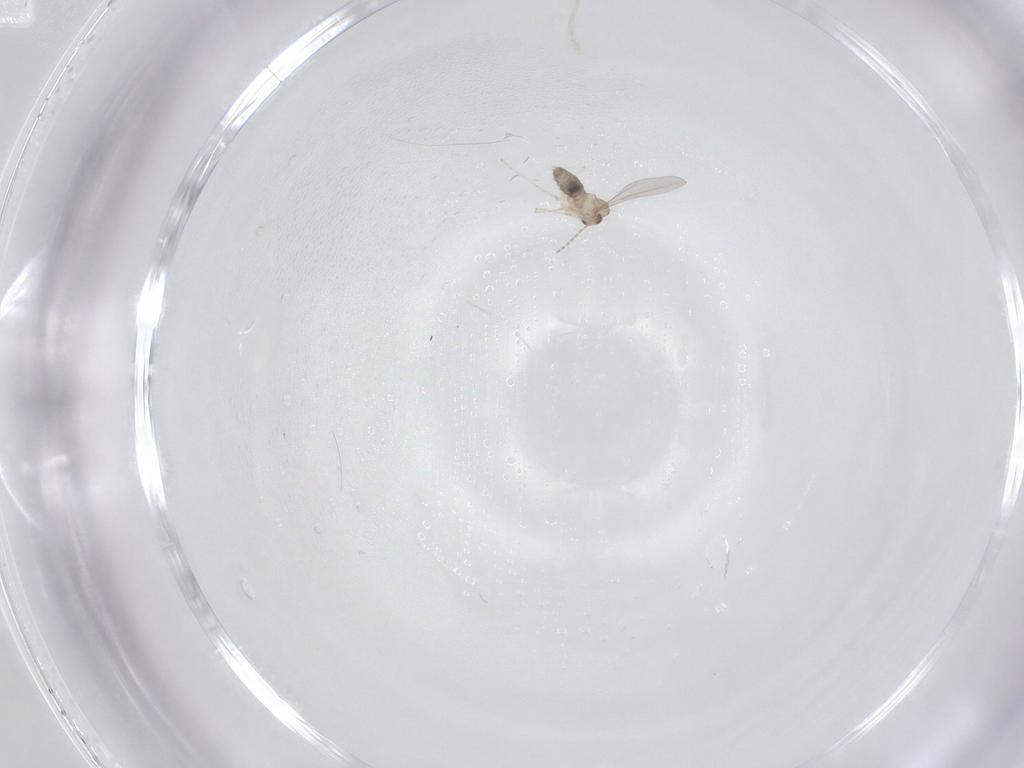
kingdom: Animalia
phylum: Arthropoda
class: Insecta
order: Diptera
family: Cecidomyiidae
